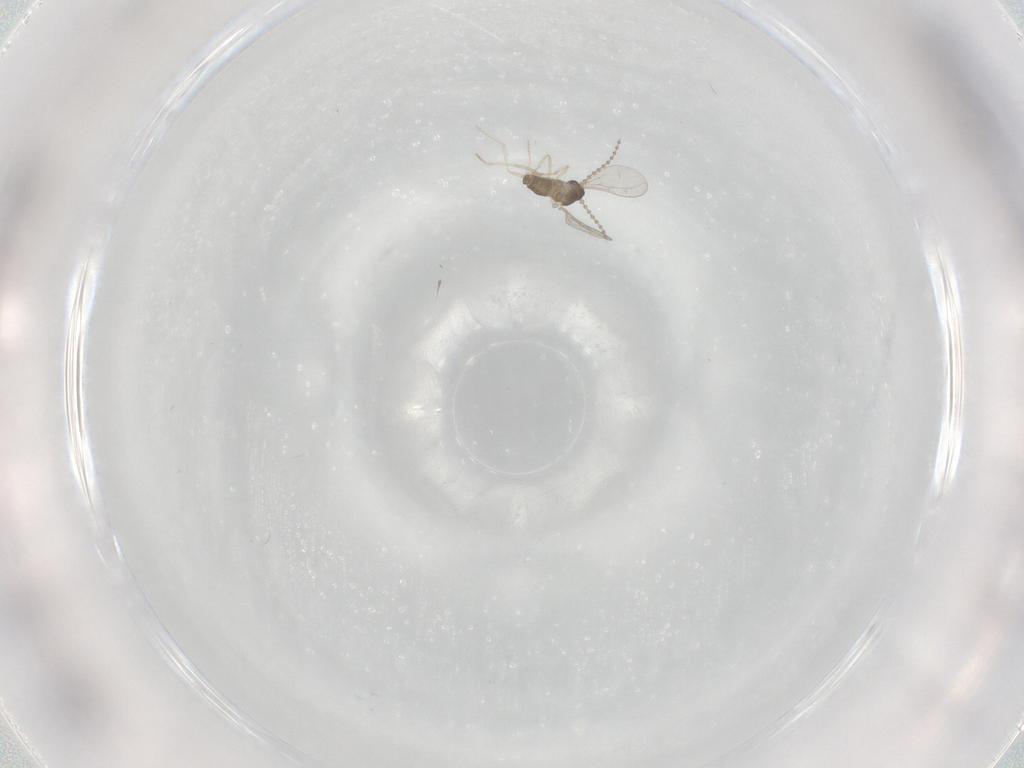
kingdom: Animalia
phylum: Arthropoda
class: Insecta
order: Diptera
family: Cecidomyiidae
